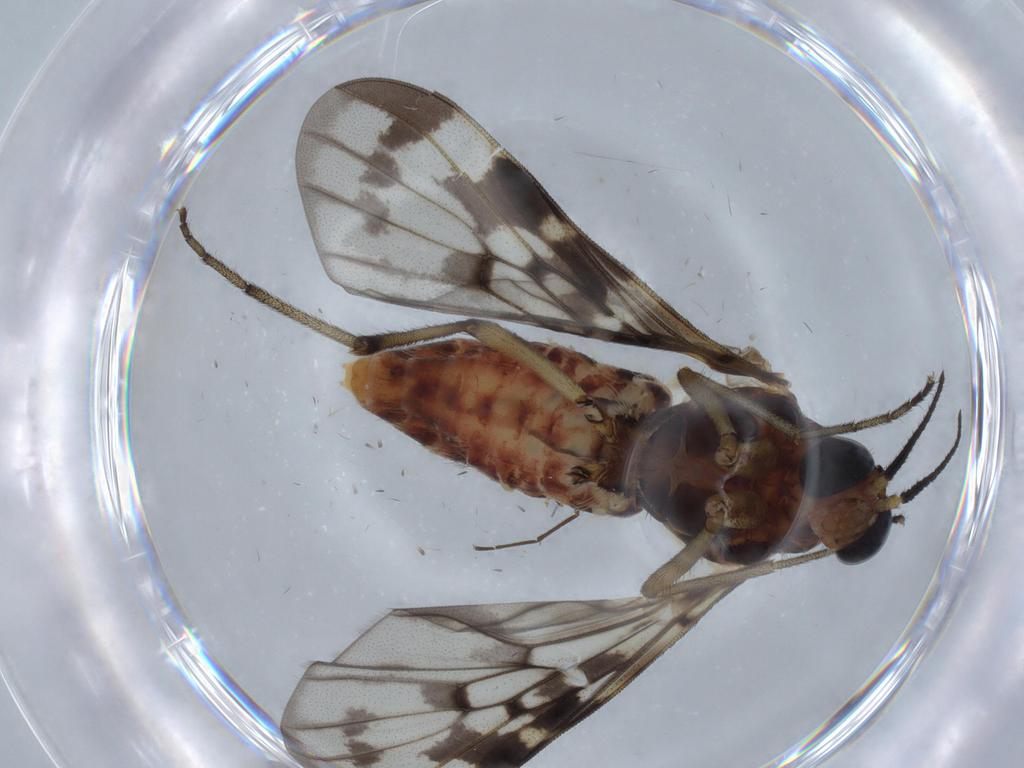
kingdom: Animalia
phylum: Arthropoda
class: Insecta
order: Diptera
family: Anisopodidae
